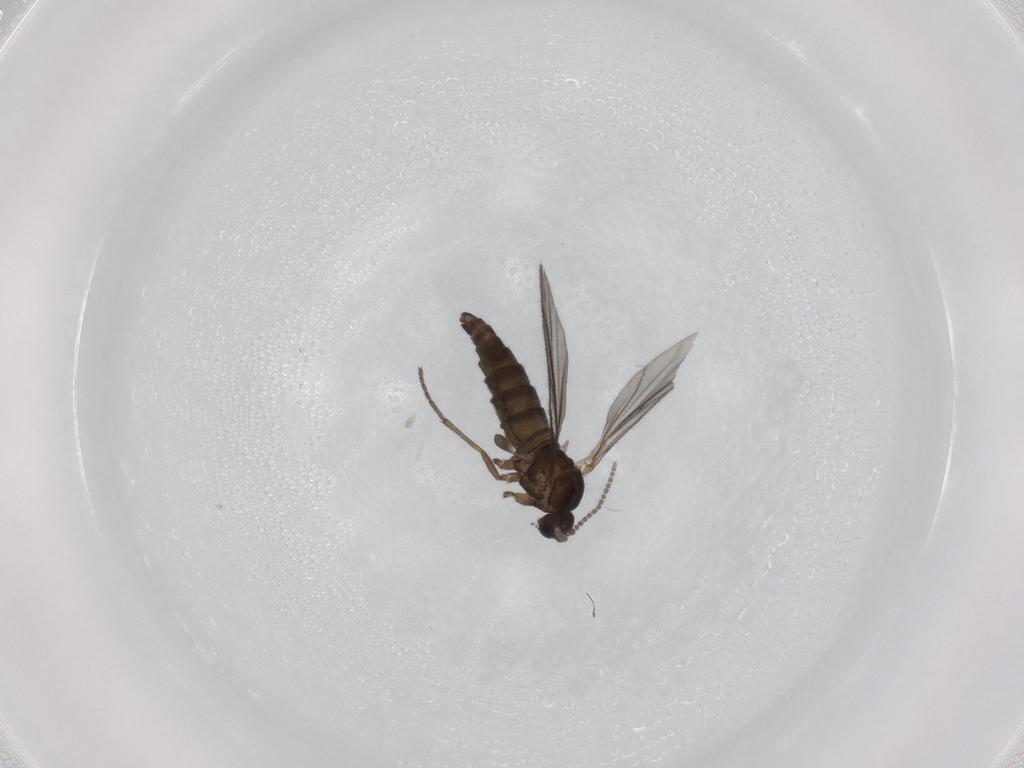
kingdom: Animalia
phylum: Arthropoda
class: Insecta
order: Diptera
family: Sciaridae
